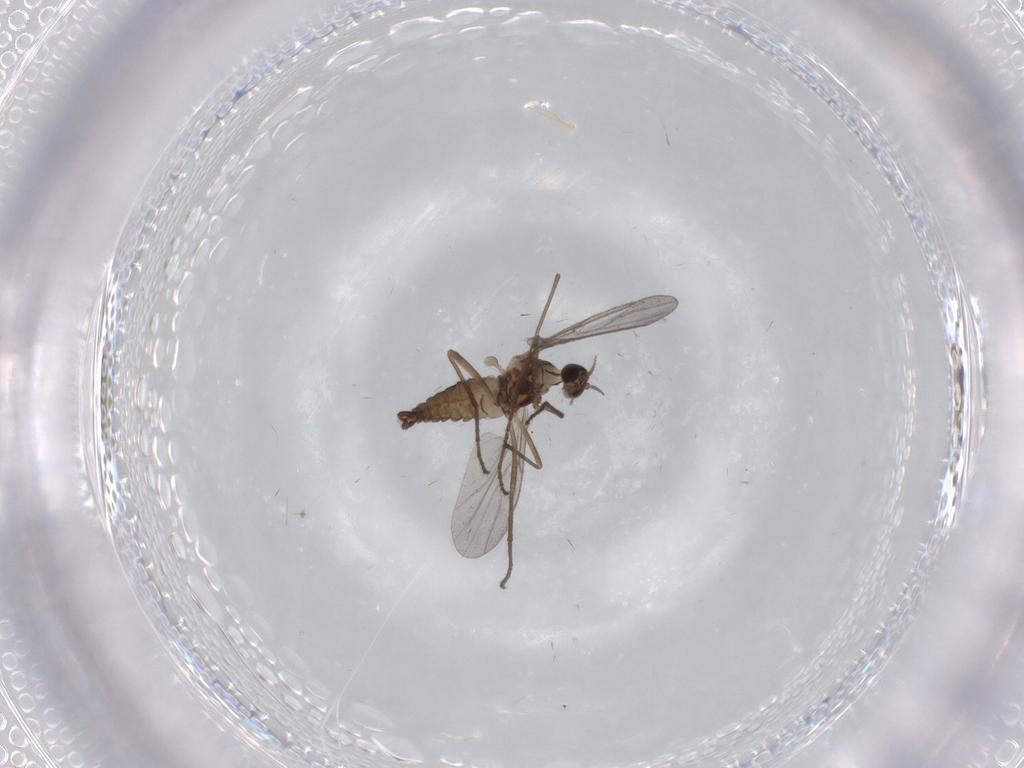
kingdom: Animalia
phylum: Arthropoda
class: Insecta
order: Diptera
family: Cecidomyiidae
